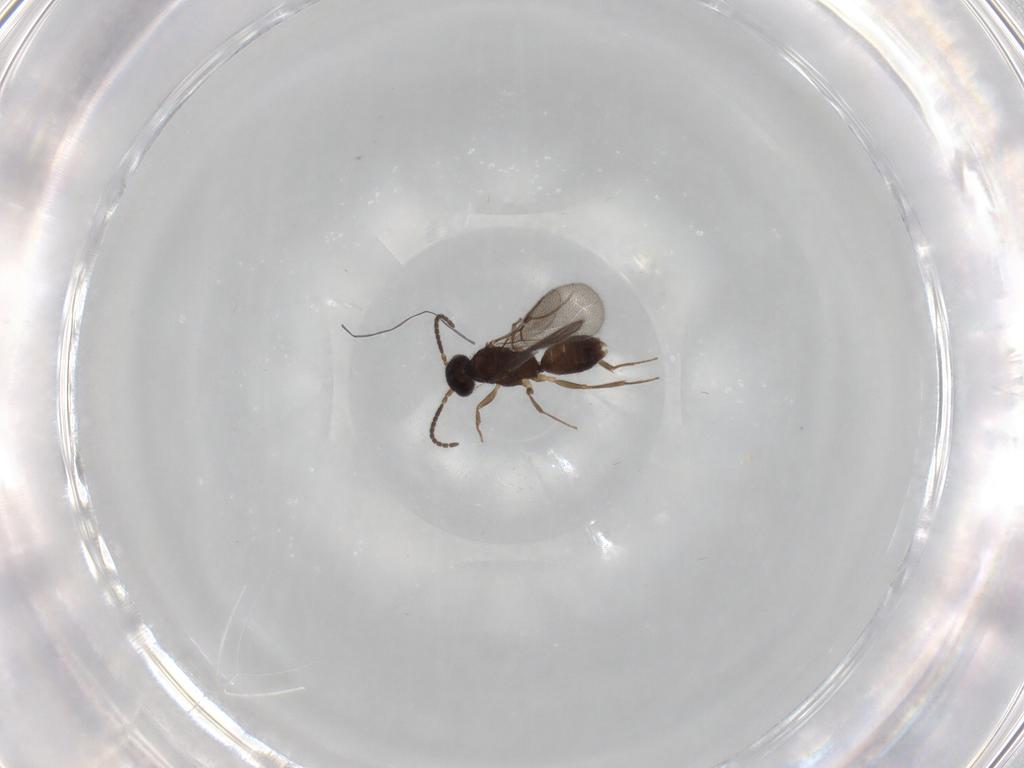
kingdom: Animalia
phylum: Arthropoda
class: Insecta
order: Hymenoptera
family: Bethylidae
